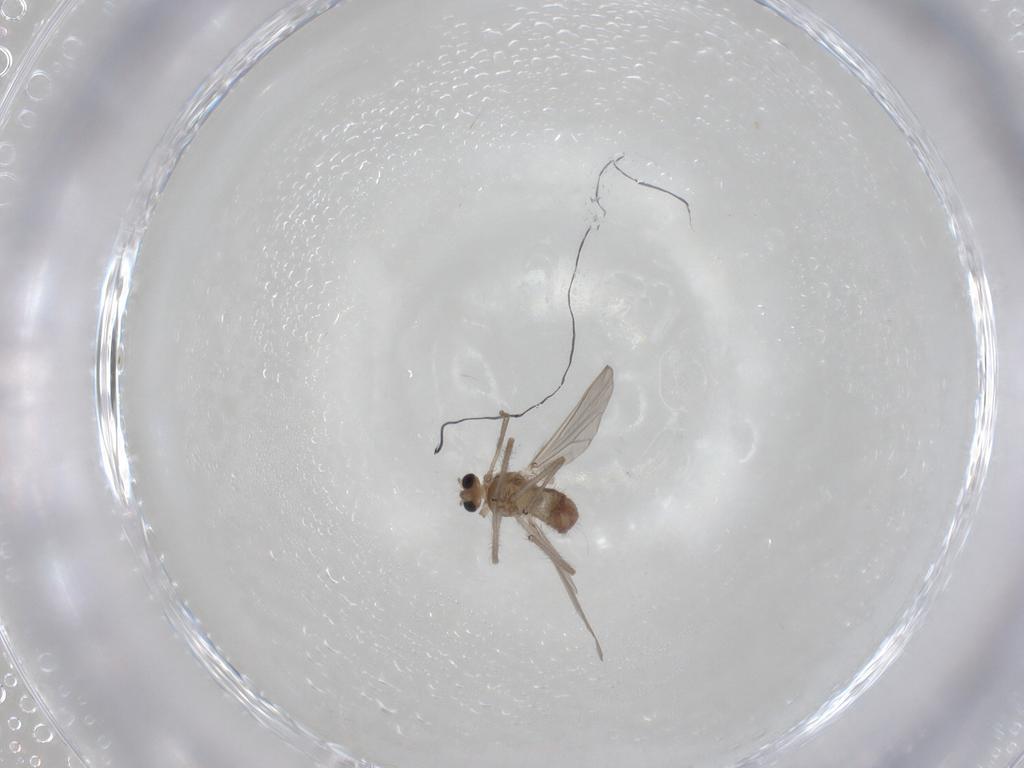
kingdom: Animalia
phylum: Arthropoda
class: Insecta
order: Diptera
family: Chironomidae
